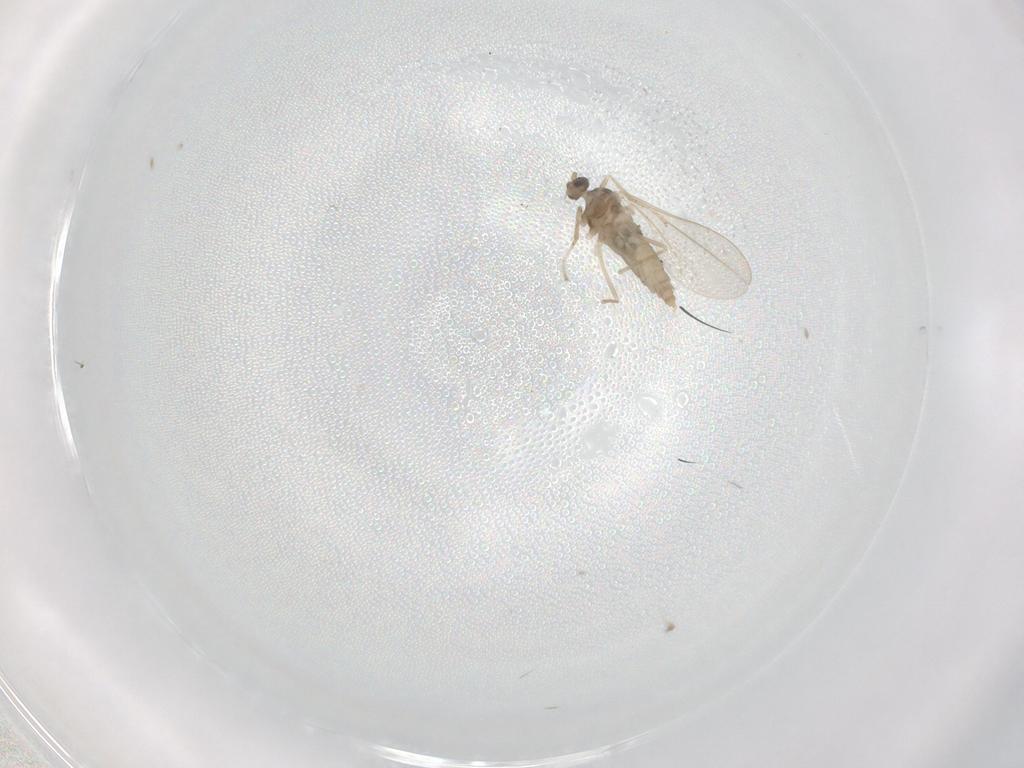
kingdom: Animalia
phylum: Arthropoda
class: Insecta
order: Diptera
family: Cecidomyiidae
